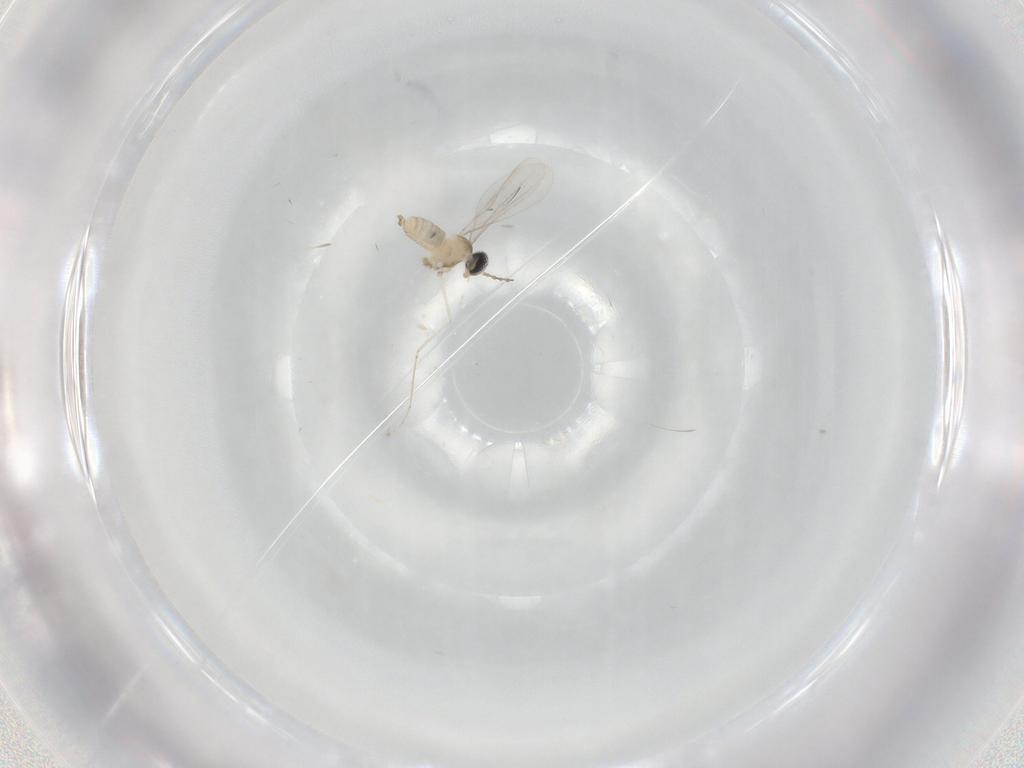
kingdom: Animalia
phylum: Arthropoda
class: Insecta
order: Diptera
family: Cecidomyiidae
